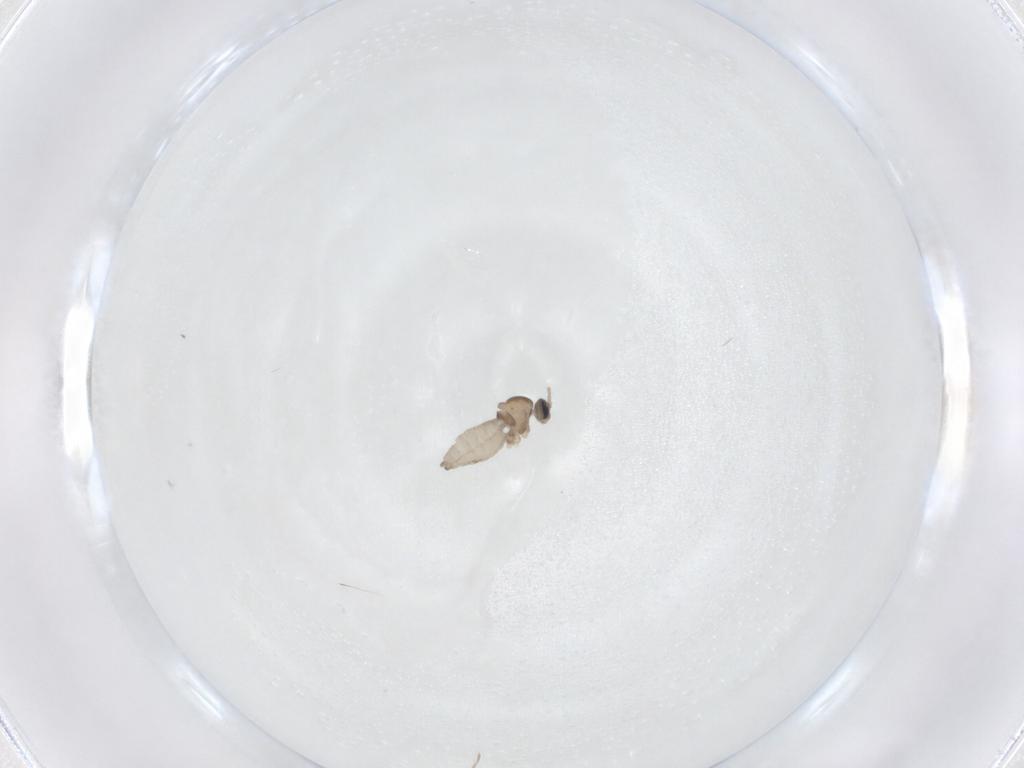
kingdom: Animalia
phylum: Arthropoda
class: Insecta
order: Diptera
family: Cecidomyiidae
